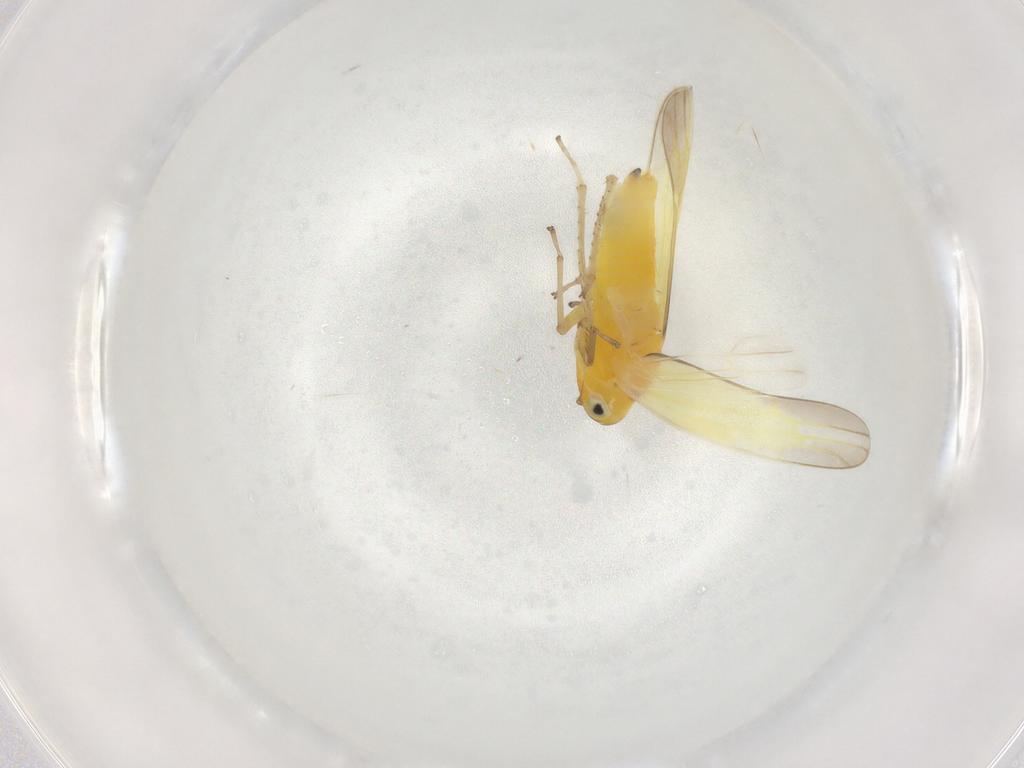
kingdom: Animalia
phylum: Arthropoda
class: Insecta
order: Hemiptera
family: Cicadellidae
